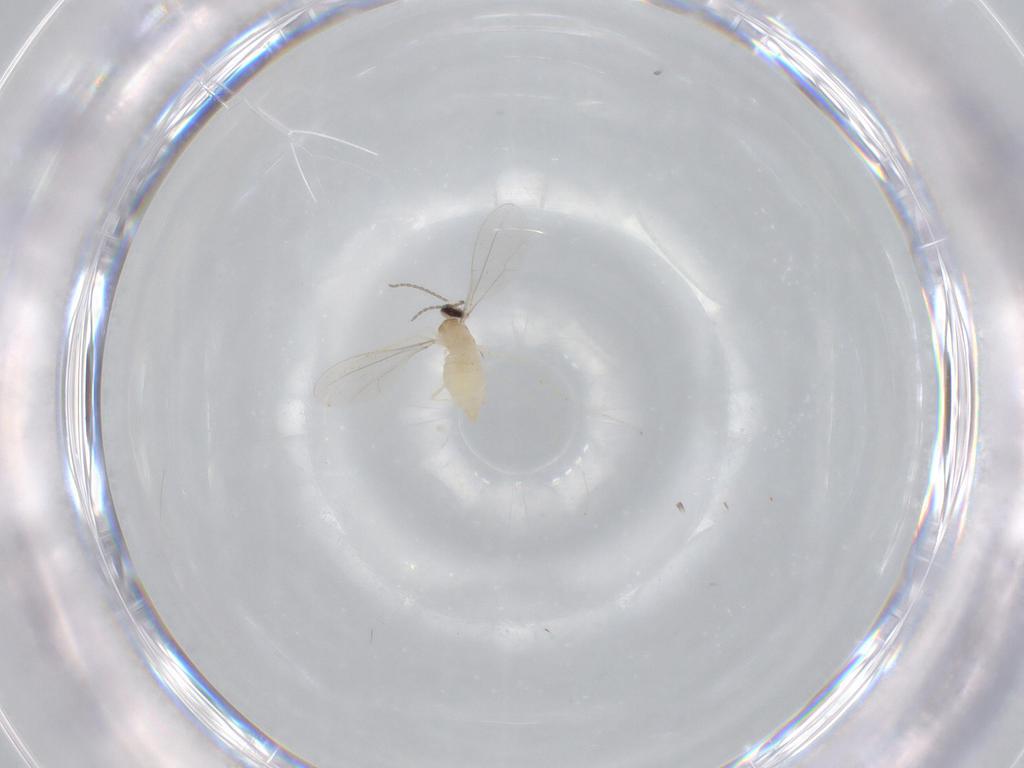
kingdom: Animalia
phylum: Arthropoda
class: Insecta
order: Diptera
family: Cecidomyiidae
